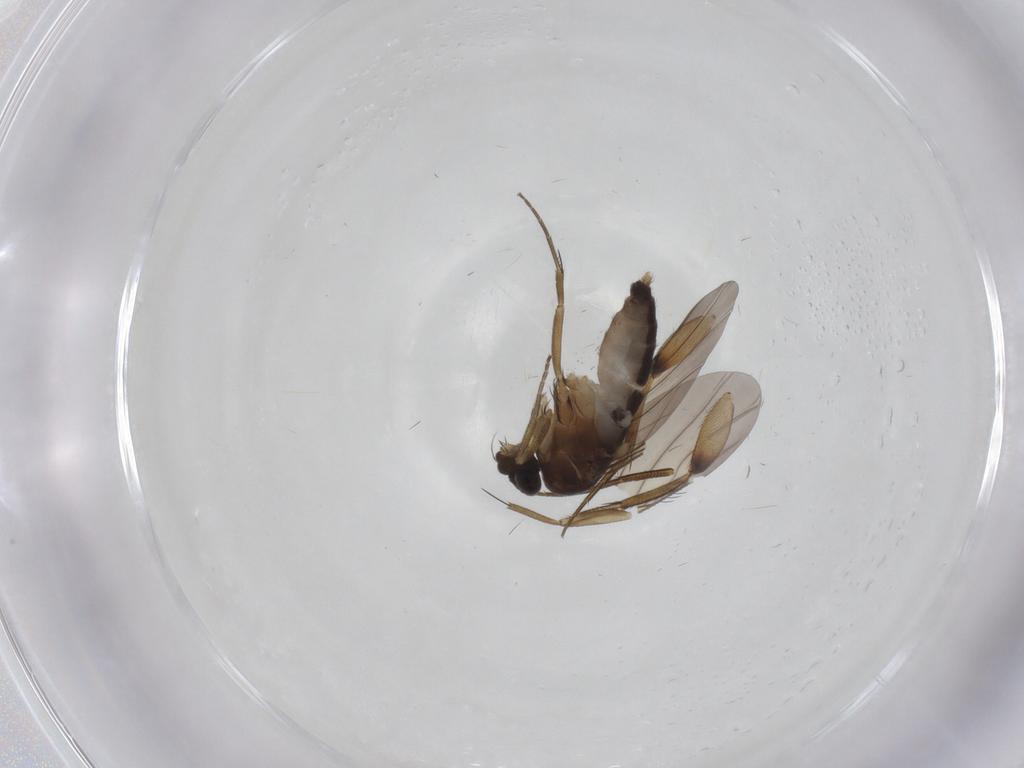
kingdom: Animalia
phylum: Arthropoda
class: Insecta
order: Diptera
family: Phoridae
